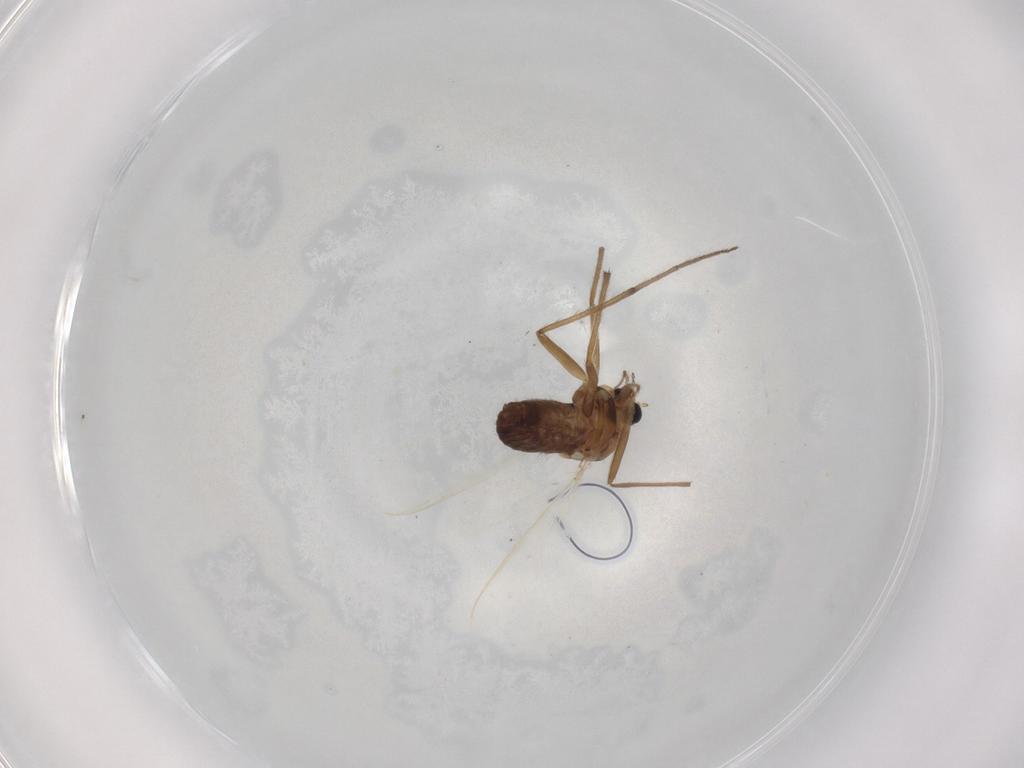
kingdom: Animalia
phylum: Arthropoda
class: Insecta
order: Diptera
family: Chironomidae
